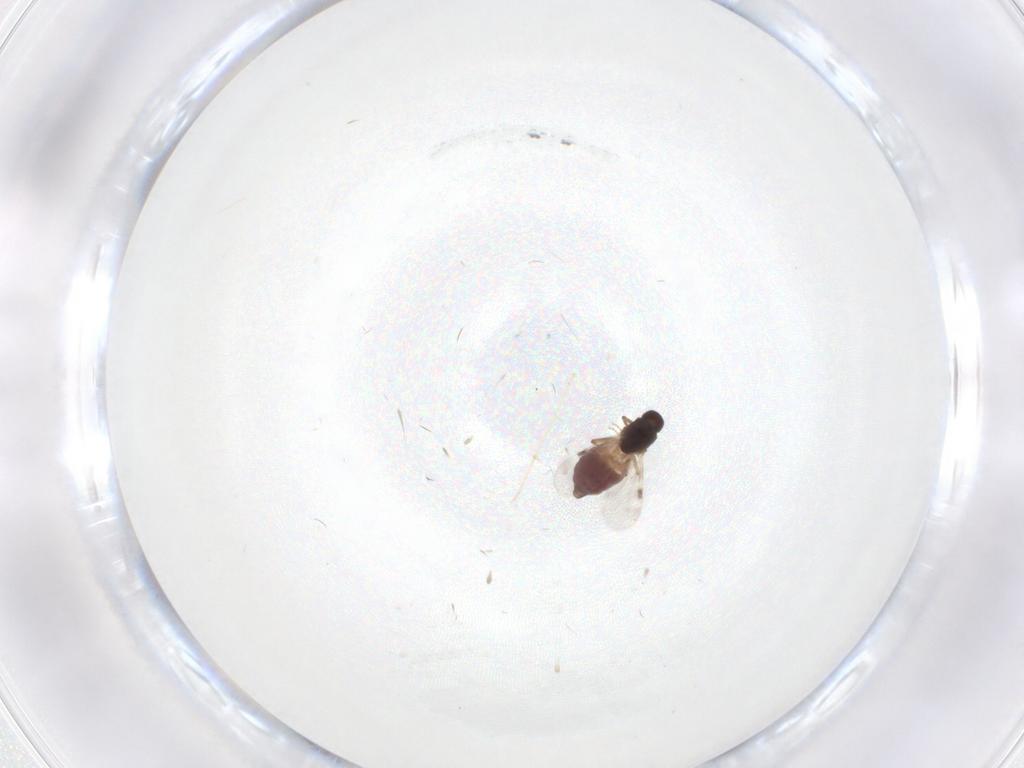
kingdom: Animalia
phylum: Arthropoda
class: Insecta
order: Diptera
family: Chironomidae
